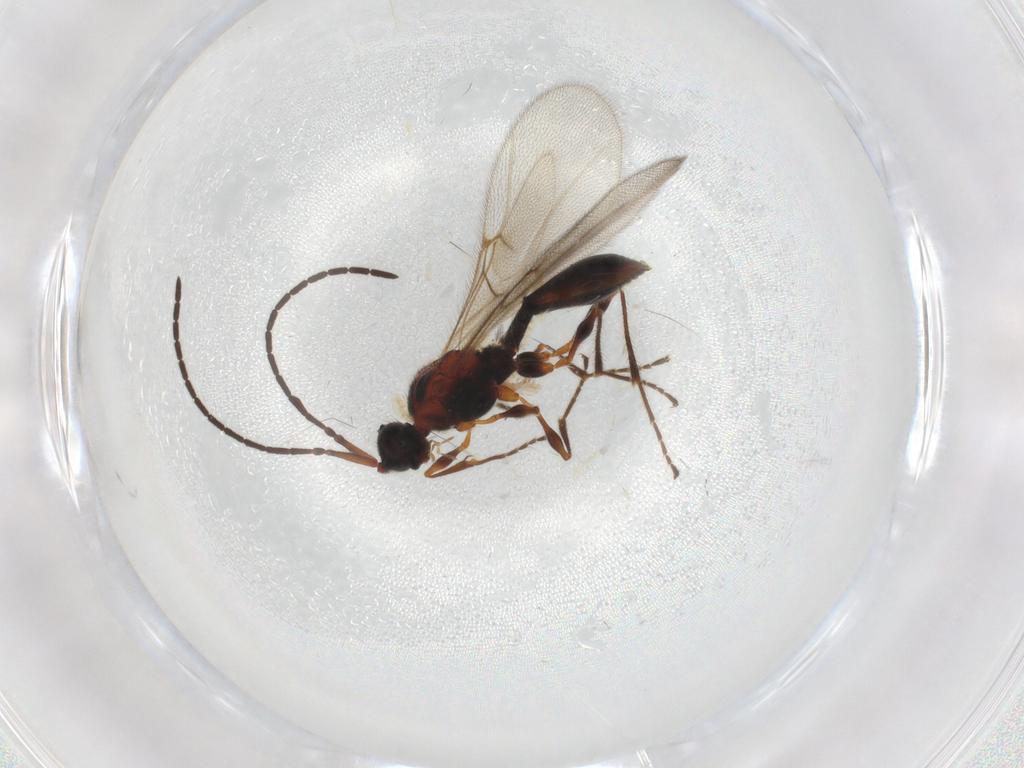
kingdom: Animalia
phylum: Arthropoda
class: Insecta
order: Hymenoptera
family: Diapriidae
